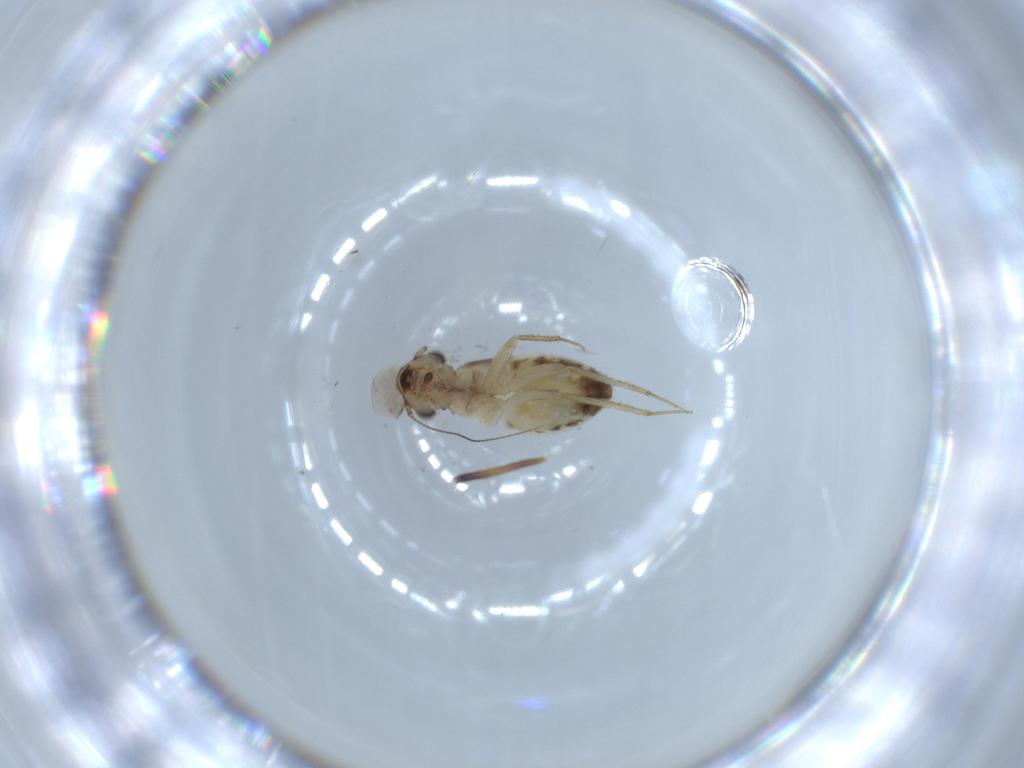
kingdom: Animalia
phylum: Arthropoda
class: Insecta
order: Psocodea
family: Lepidopsocidae
